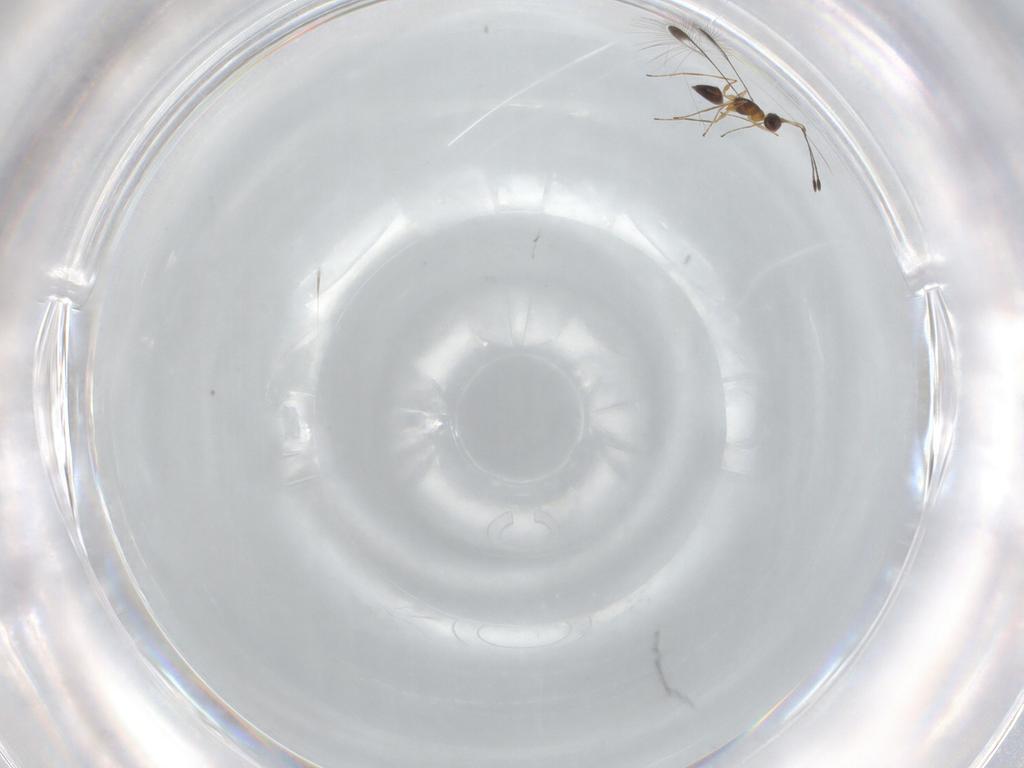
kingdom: Animalia
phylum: Arthropoda
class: Insecta
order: Hymenoptera
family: Mymaridae
